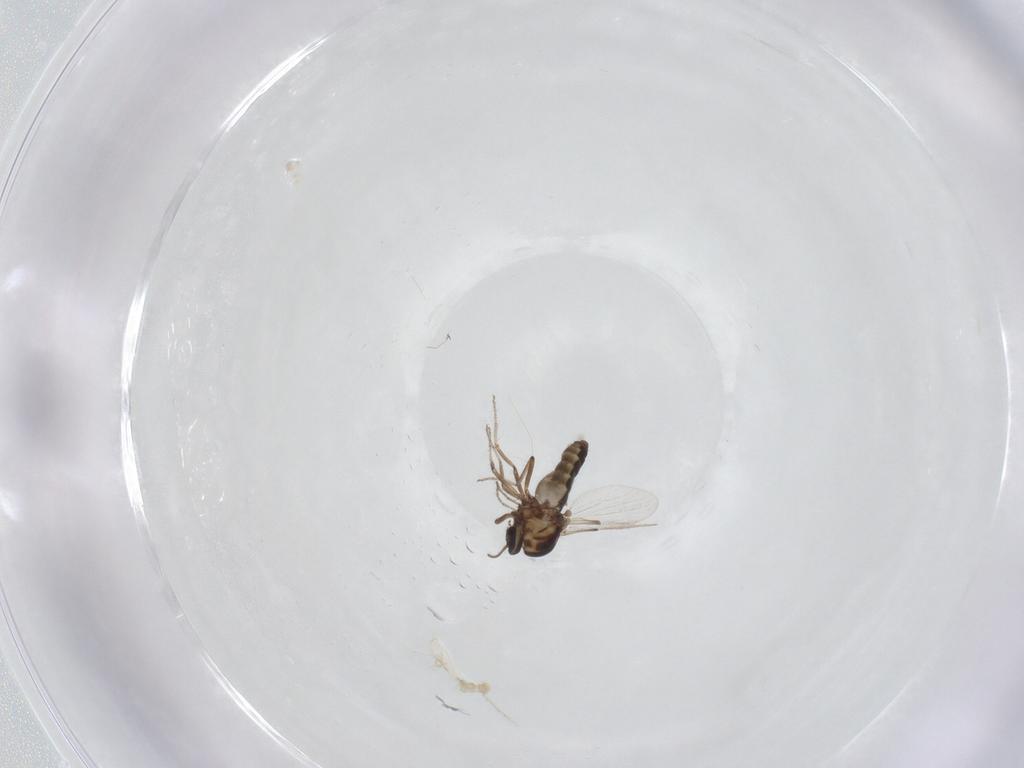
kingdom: Animalia
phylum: Arthropoda
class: Insecta
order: Diptera
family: Ceratopogonidae
